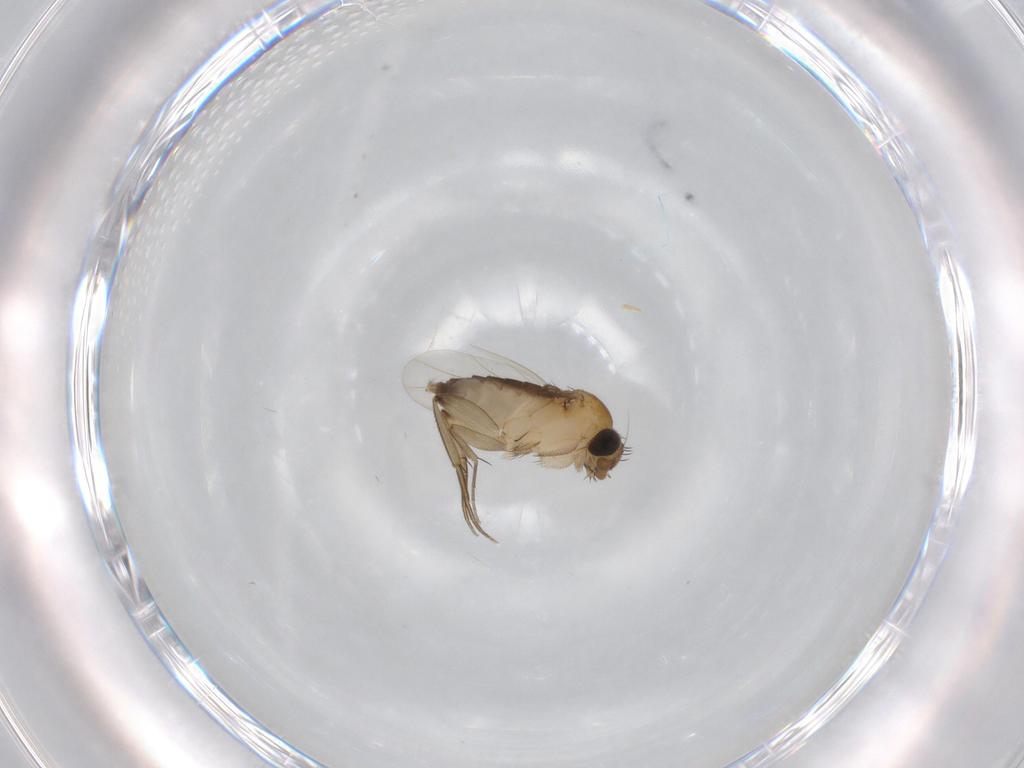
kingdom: Animalia
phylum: Arthropoda
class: Insecta
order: Diptera
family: Phoridae
